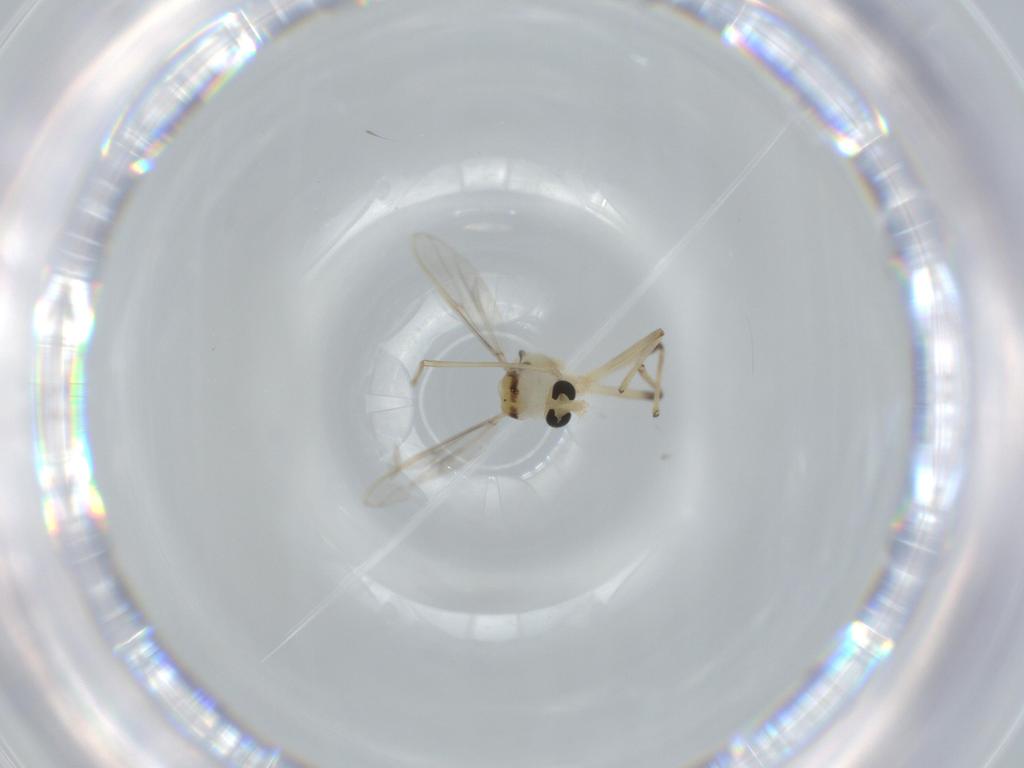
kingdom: Animalia
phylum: Arthropoda
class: Insecta
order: Diptera
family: Chironomidae
